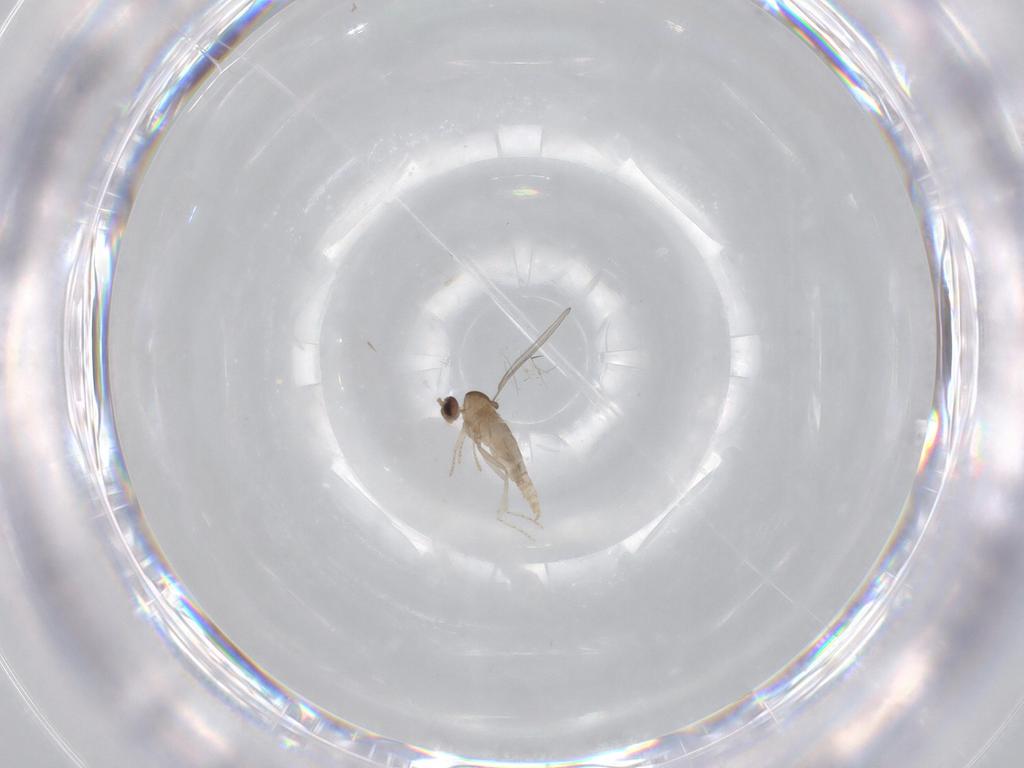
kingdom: Animalia
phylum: Arthropoda
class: Insecta
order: Diptera
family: Cecidomyiidae
